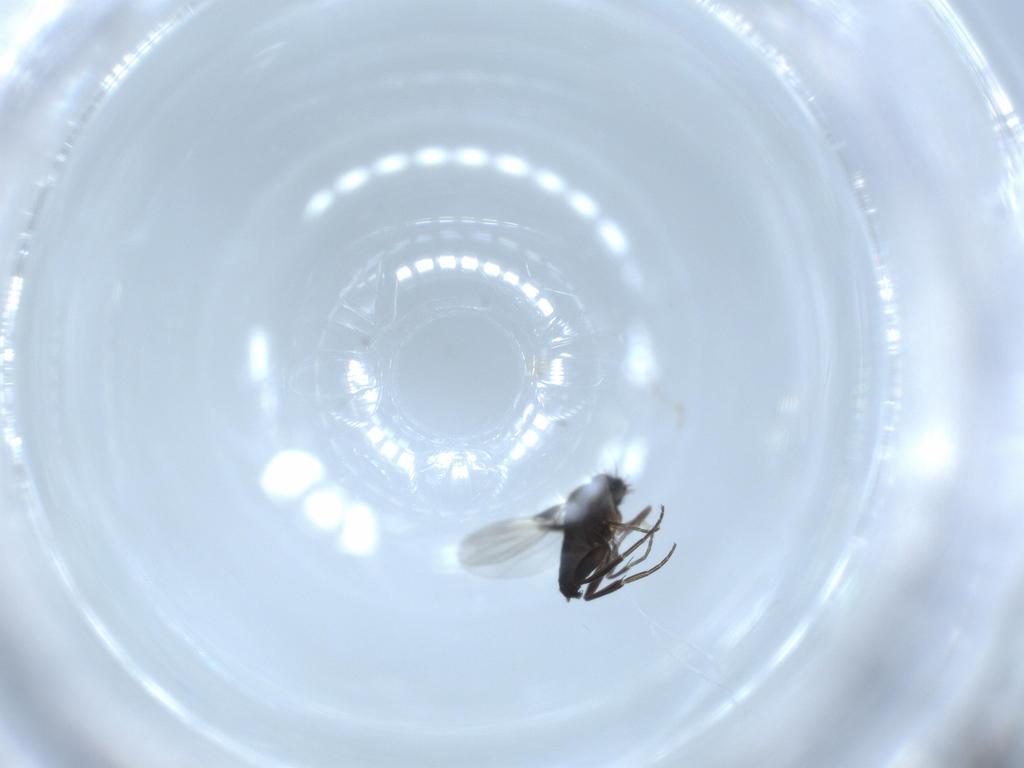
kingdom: Animalia
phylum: Arthropoda
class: Insecta
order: Diptera
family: Phoridae
